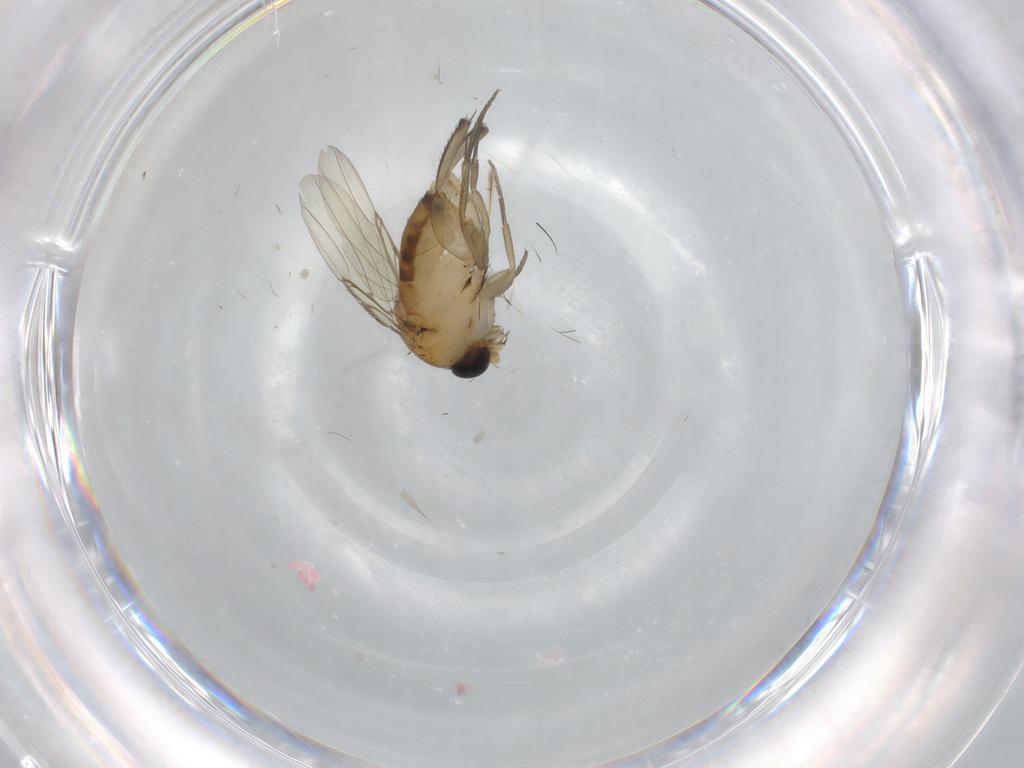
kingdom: Animalia
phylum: Arthropoda
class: Insecta
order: Diptera
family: Phoridae
